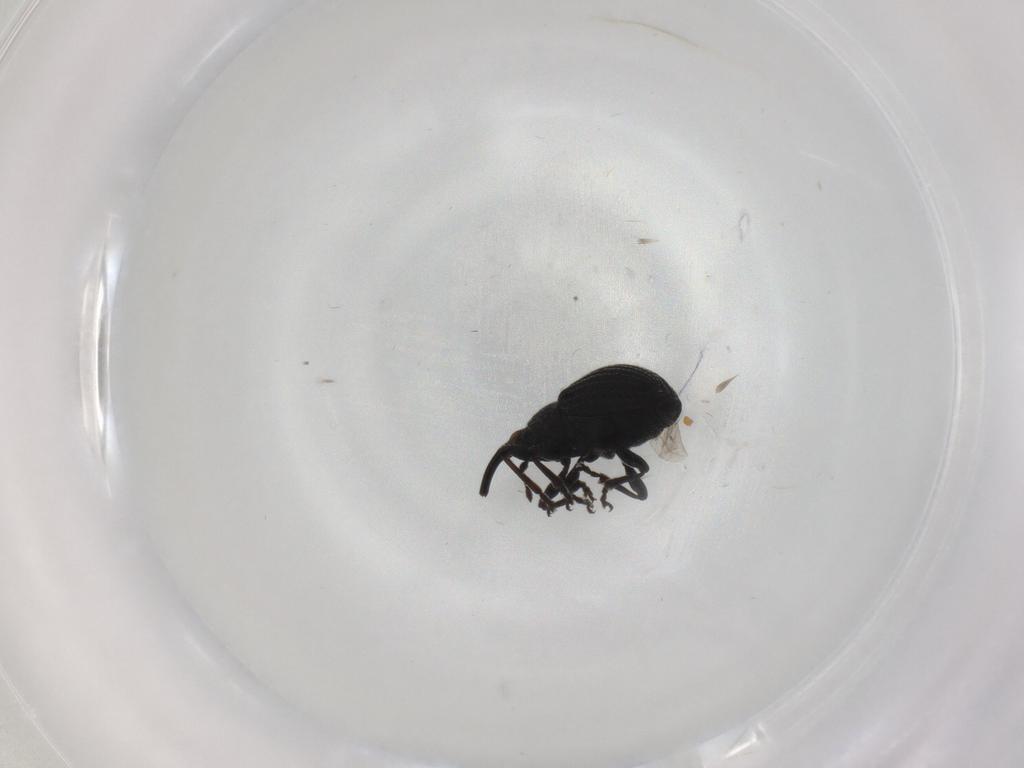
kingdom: Animalia
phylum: Arthropoda
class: Insecta
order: Coleoptera
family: Brentidae
